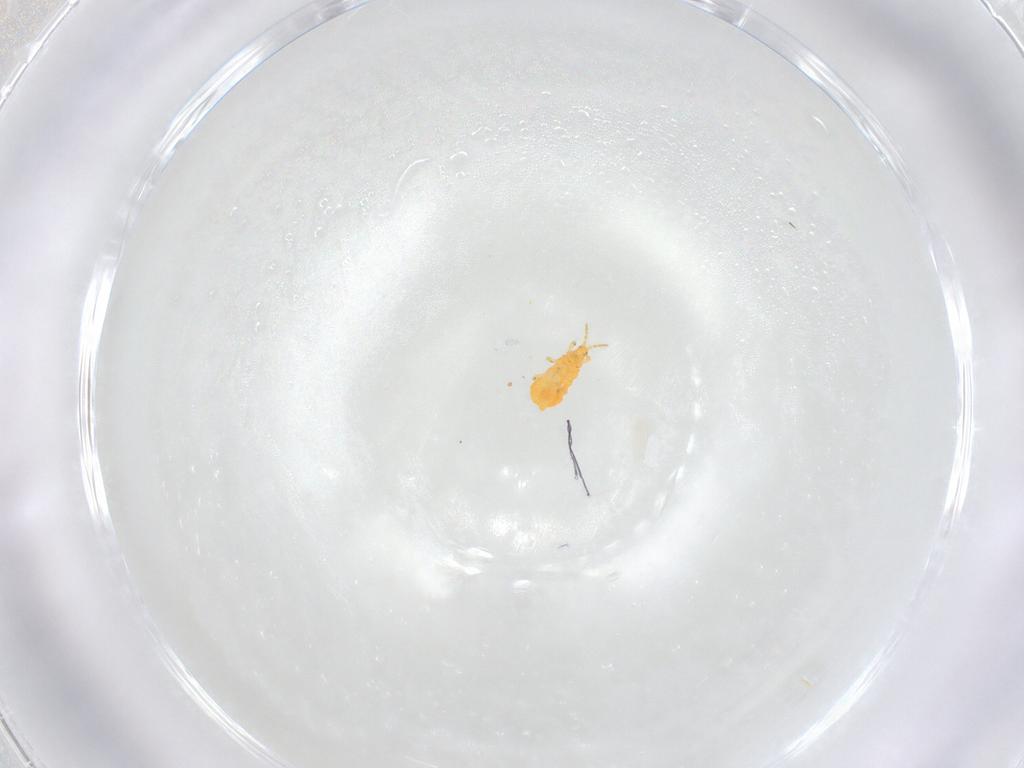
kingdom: Animalia
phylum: Arthropoda
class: Insecta
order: Thysanoptera
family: Heterothripidae
